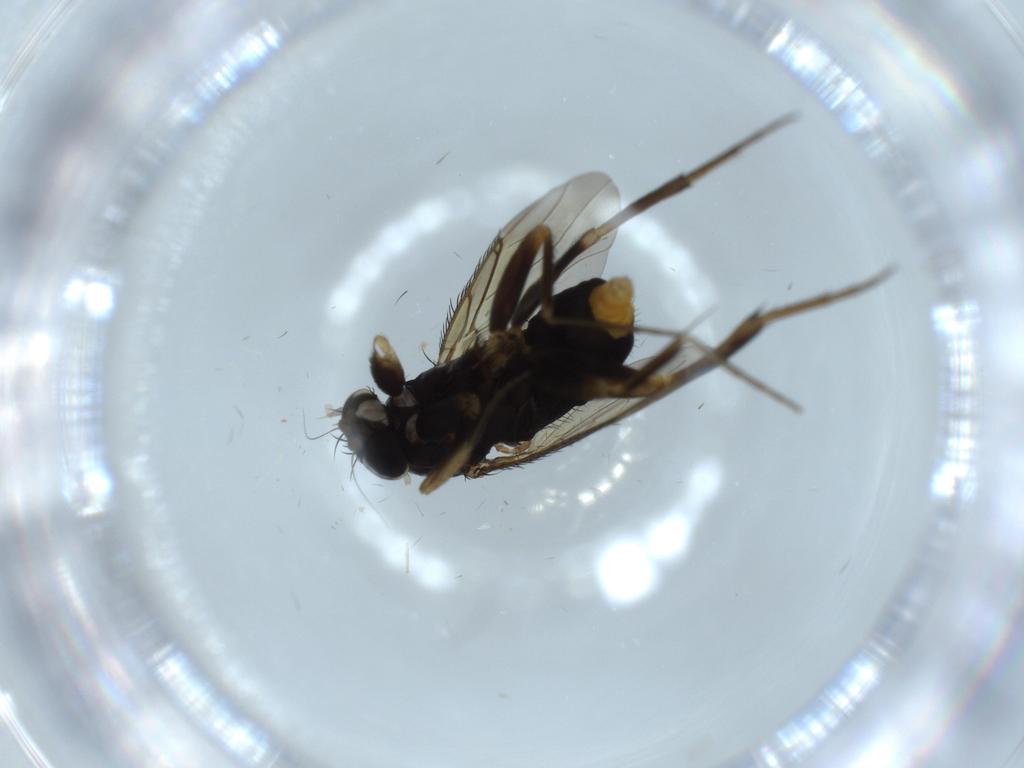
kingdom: Animalia
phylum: Arthropoda
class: Insecta
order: Diptera
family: Phoridae
